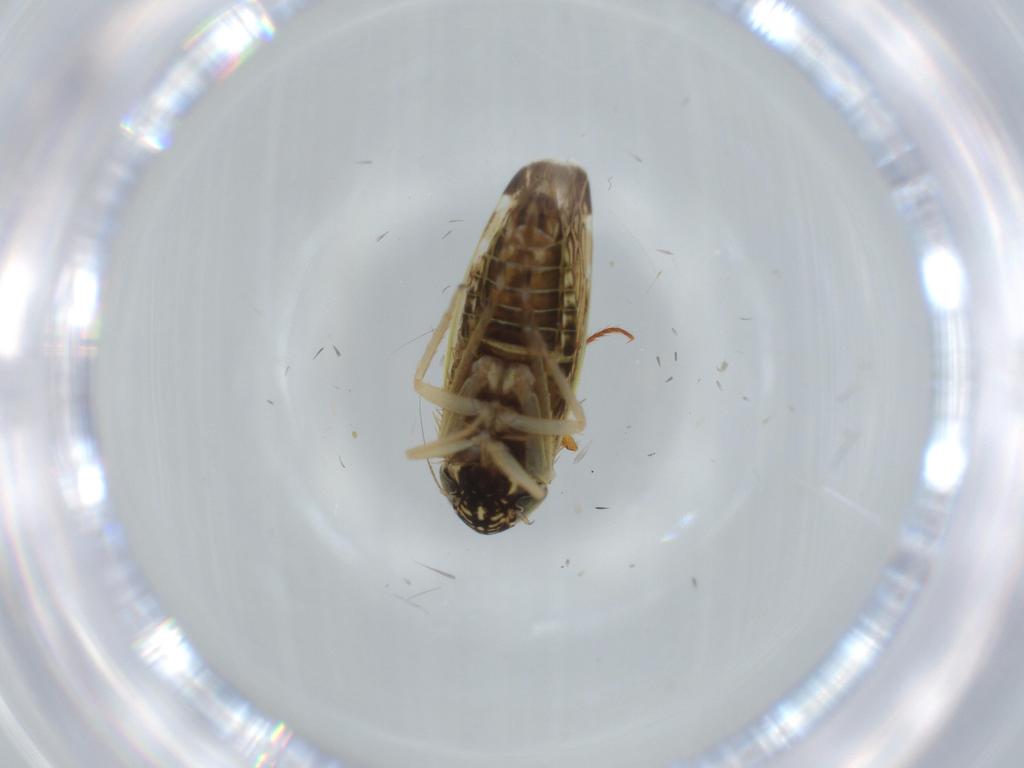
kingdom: Animalia
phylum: Arthropoda
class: Insecta
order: Hemiptera
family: Cicadellidae
